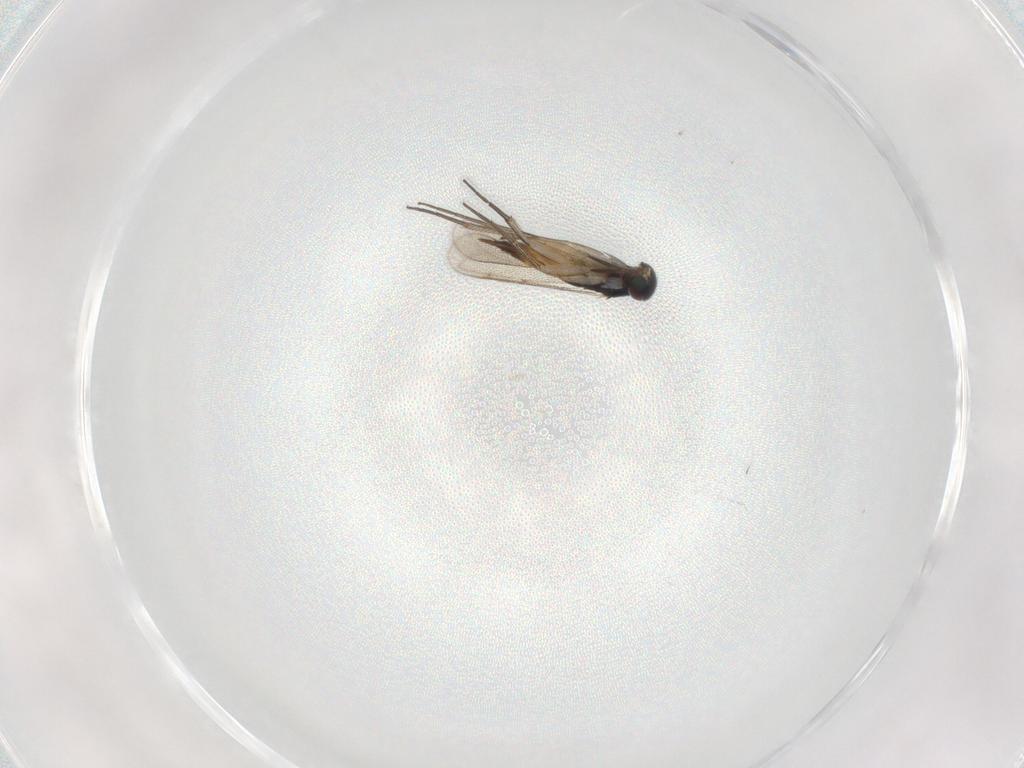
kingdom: Animalia
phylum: Arthropoda
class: Insecta
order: Hymenoptera
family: Eulophidae
